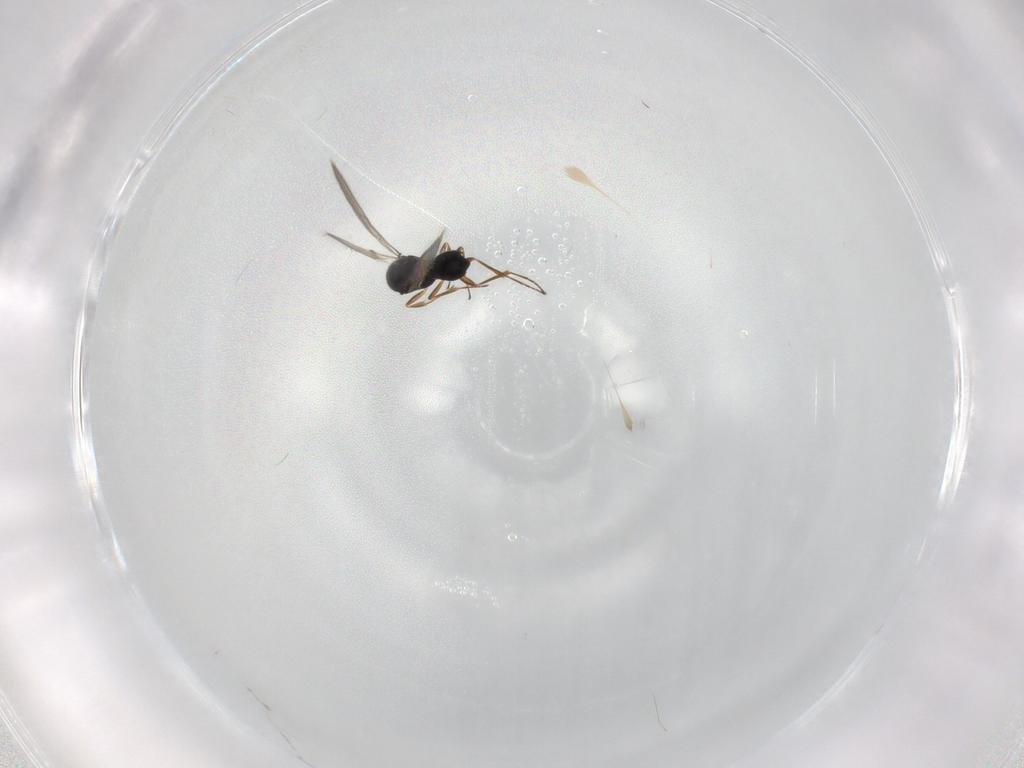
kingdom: Animalia
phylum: Arthropoda
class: Insecta
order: Hymenoptera
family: Scelionidae
